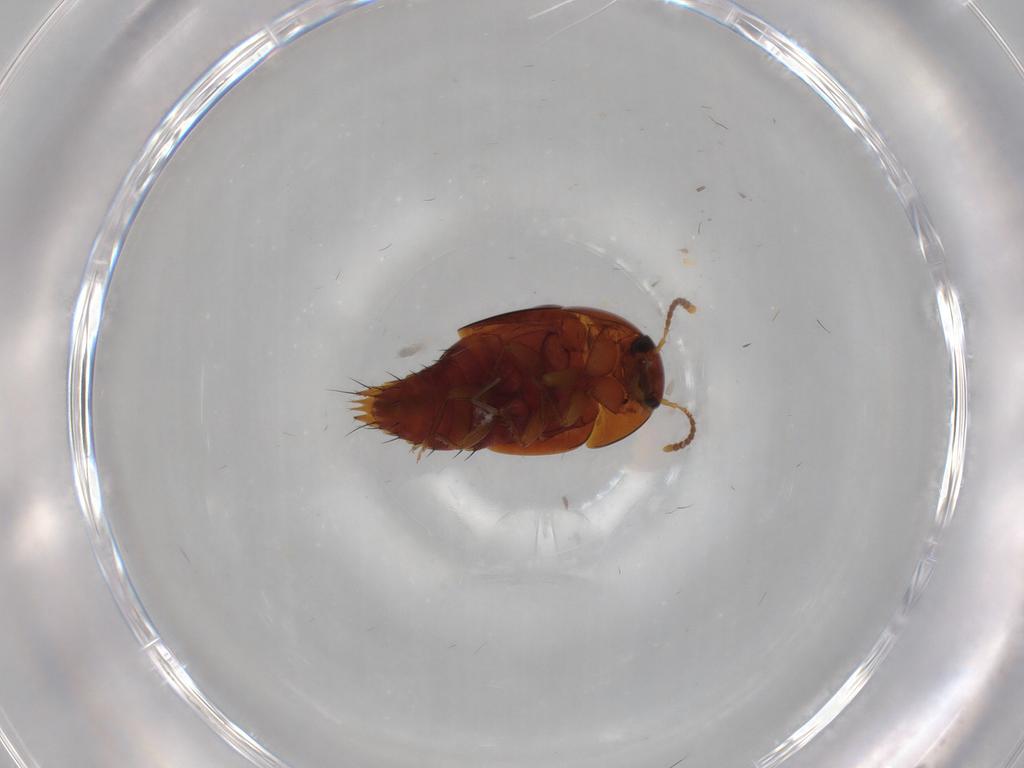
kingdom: Animalia
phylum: Arthropoda
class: Insecta
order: Coleoptera
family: Staphylinidae
